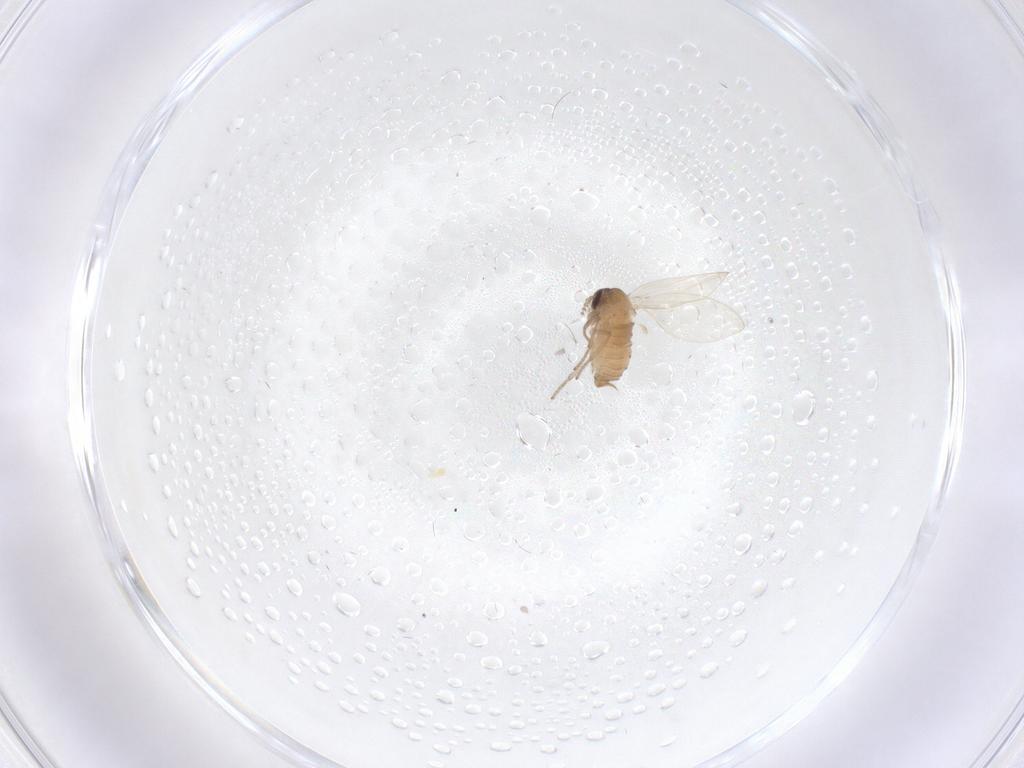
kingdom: Animalia
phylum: Arthropoda
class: Insecta
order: Diptera
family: Psychodidae
